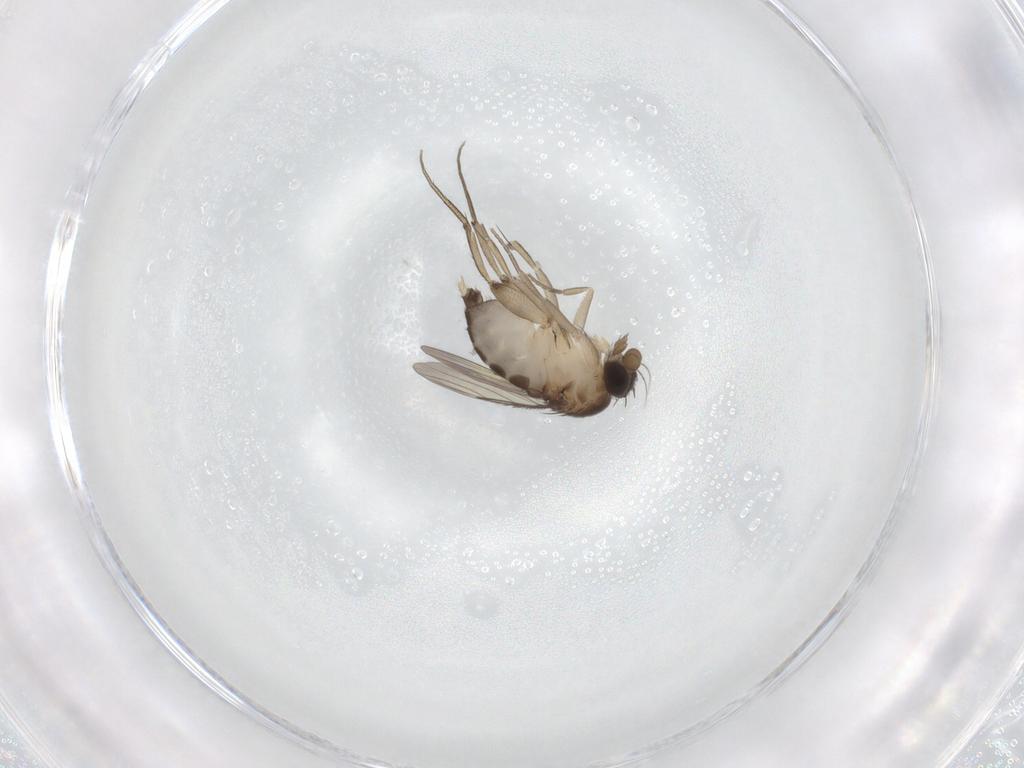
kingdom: Animalia
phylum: Arthropoda
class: Insecta
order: Diptera
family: Phoridae
